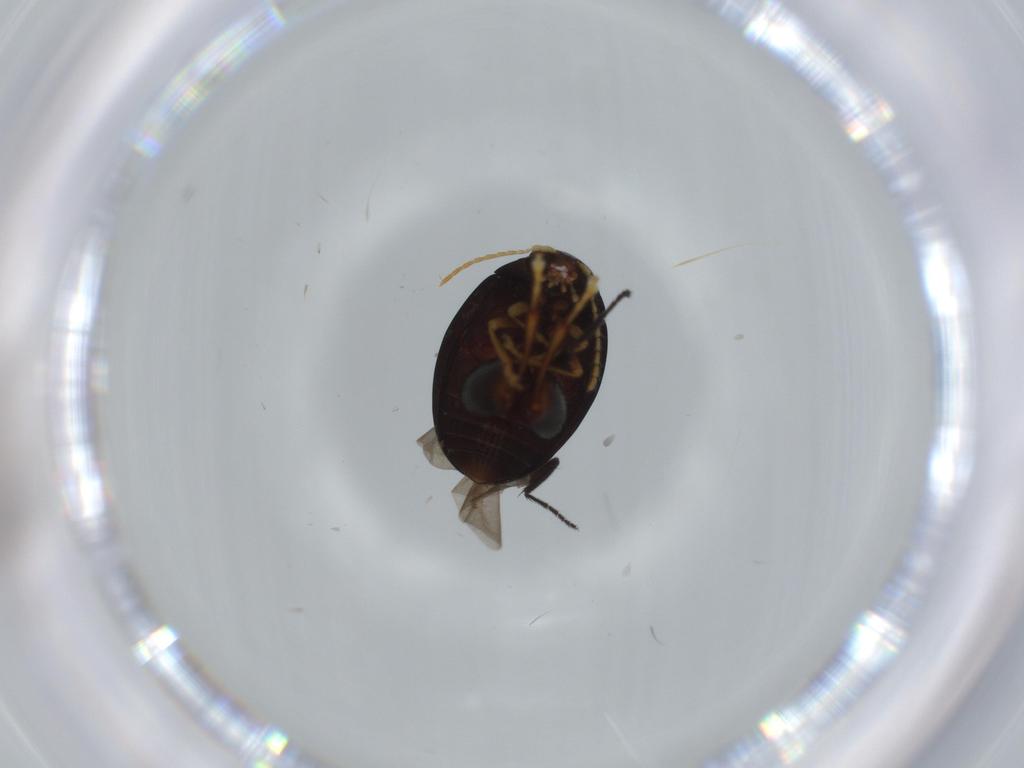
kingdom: Animalia
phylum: Arthropoda
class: Insecta
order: Coleoptera
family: Chrysomelidae
